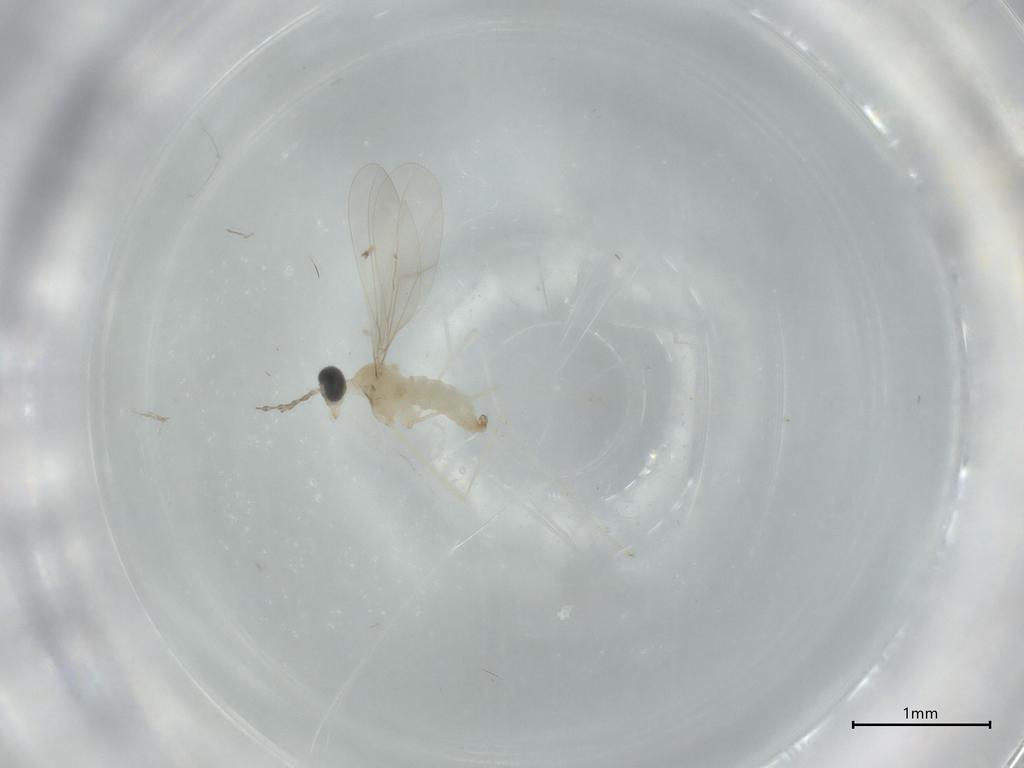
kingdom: Animalia
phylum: Arthropoda
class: Insecta
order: Diptera
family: Cecidomyiidae
